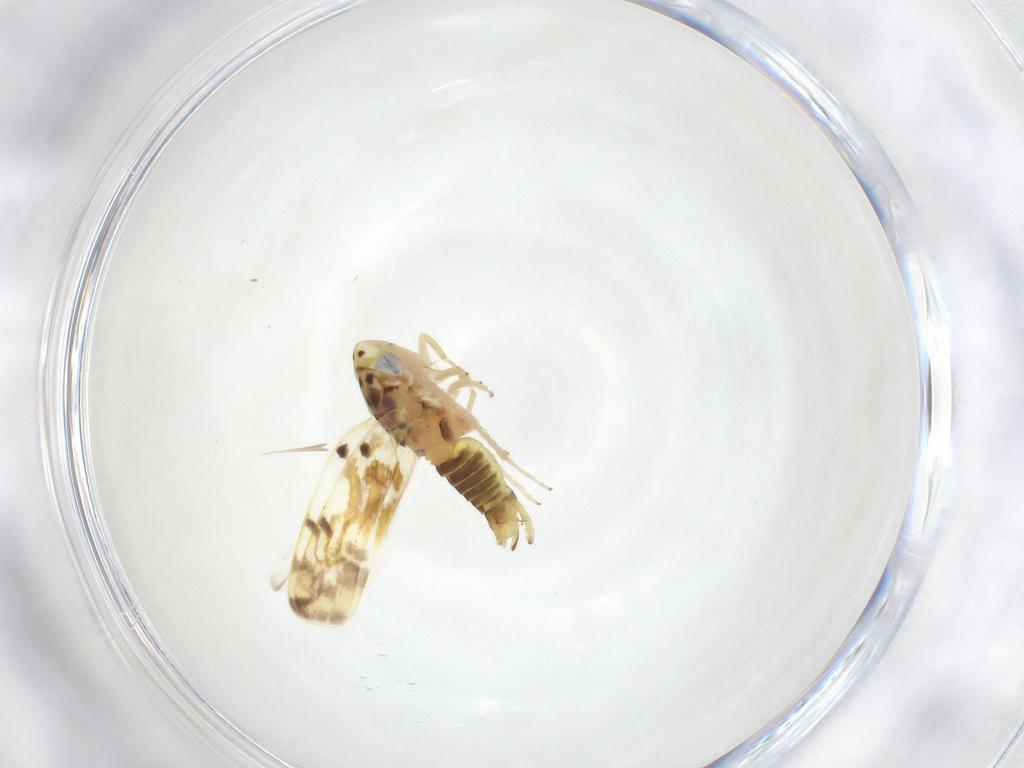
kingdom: Animalia
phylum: Arthropoda
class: Insecta
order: Hemiptera
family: Cicadellidae
